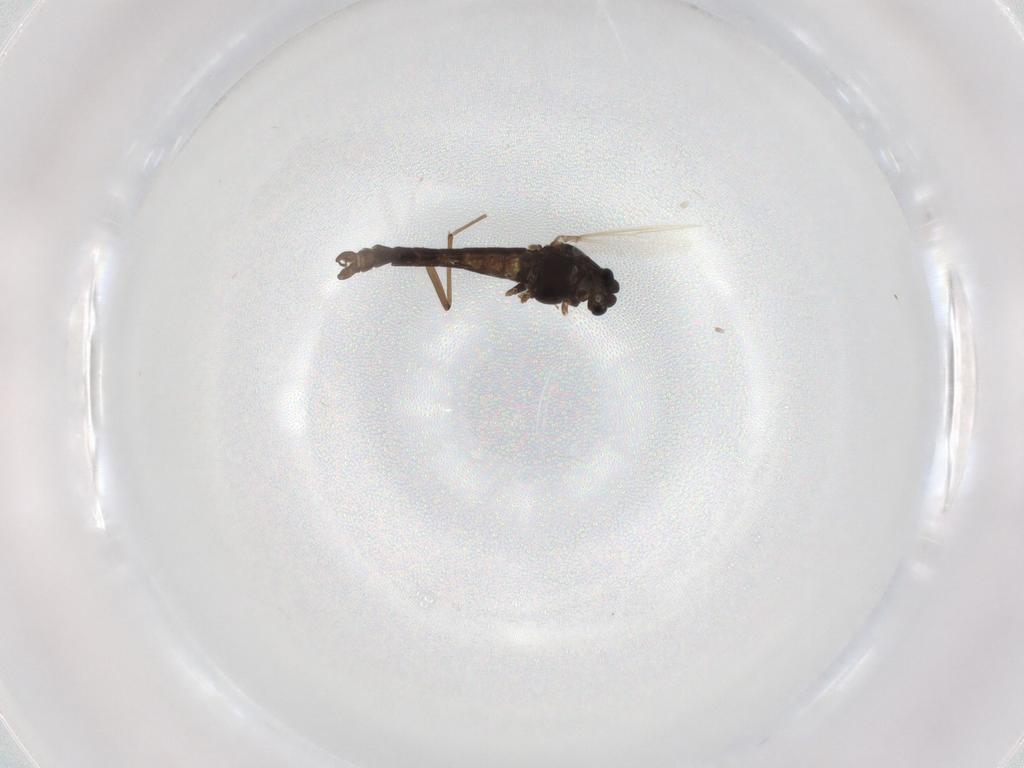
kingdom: Animalia
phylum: Arthropoda
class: Insecta
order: Diptera
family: Chironomidae
